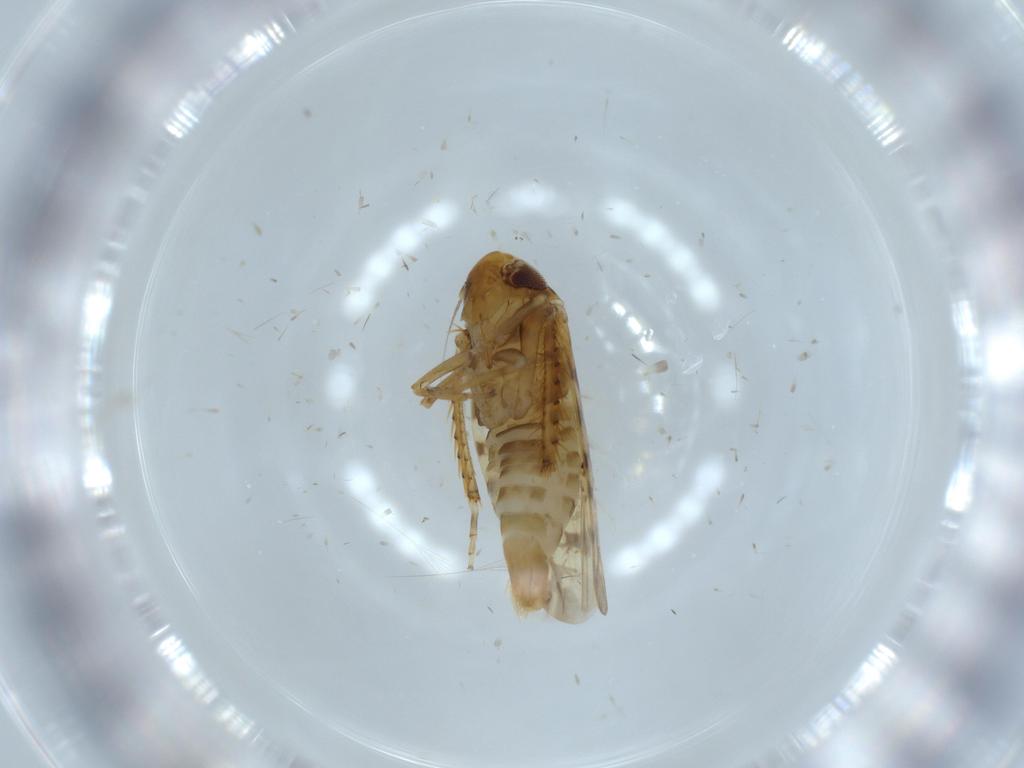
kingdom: Animalia
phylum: Arthropoda
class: Insecta
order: Hemiptera
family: Cicadellidae
